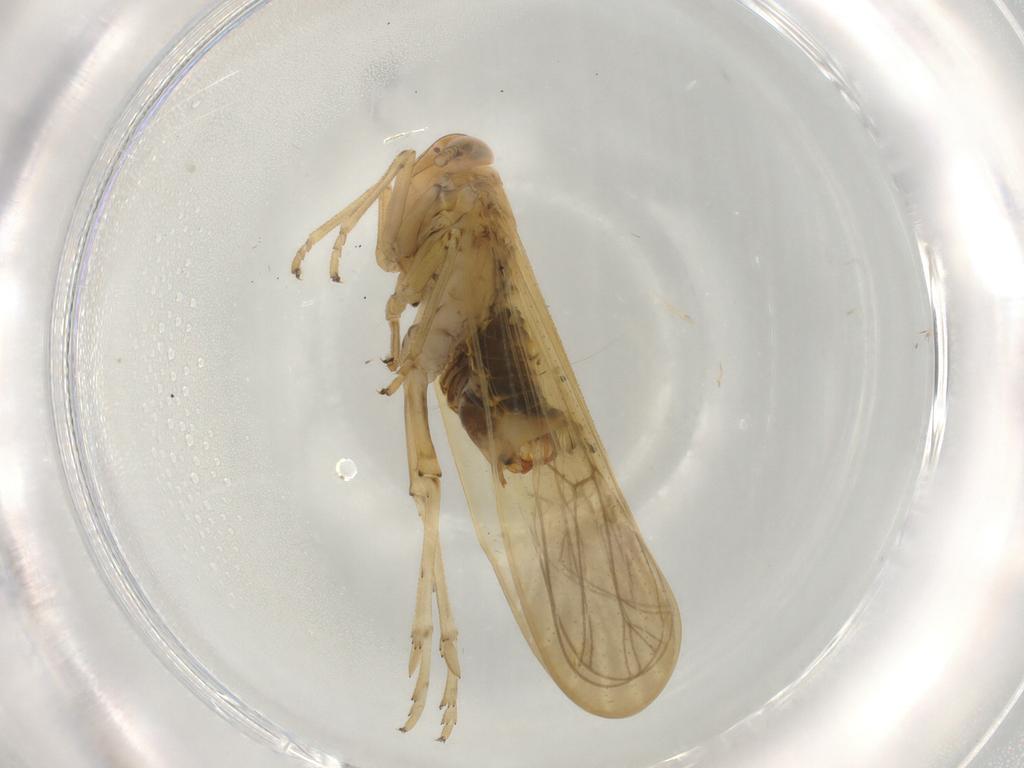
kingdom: Animalia
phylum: Arthropoda
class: Insecta
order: Hemiptera
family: Delphacidae
